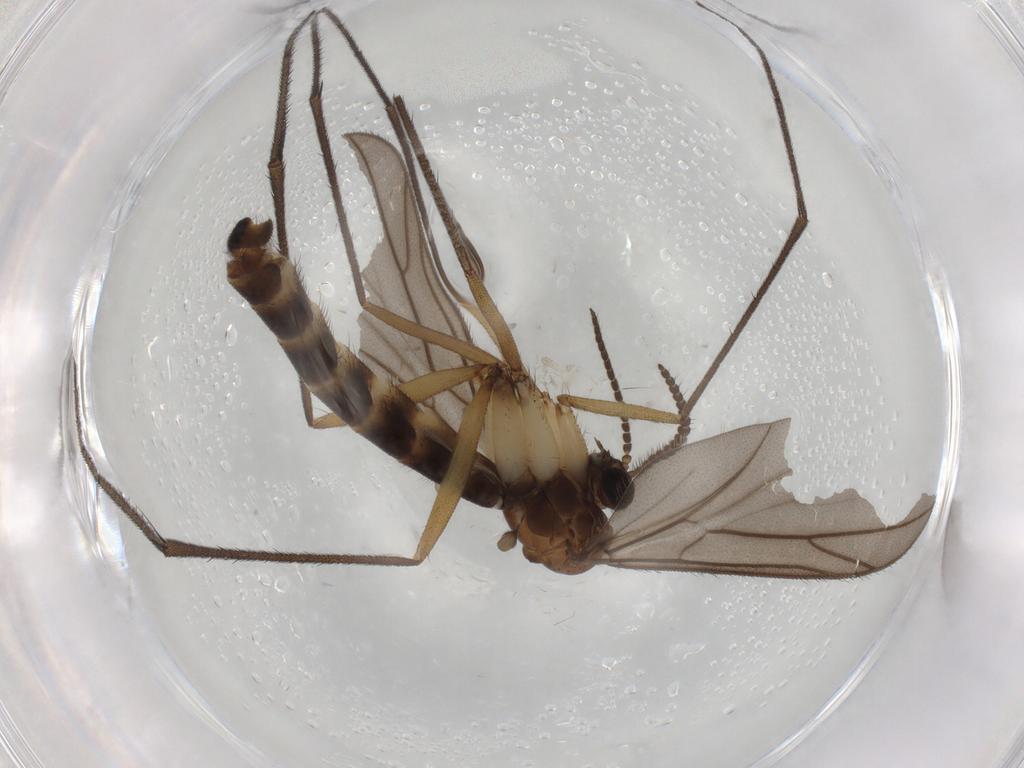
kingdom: Animalia
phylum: Arthropoda
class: Insecta
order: Diptera
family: Ditomyiidae
